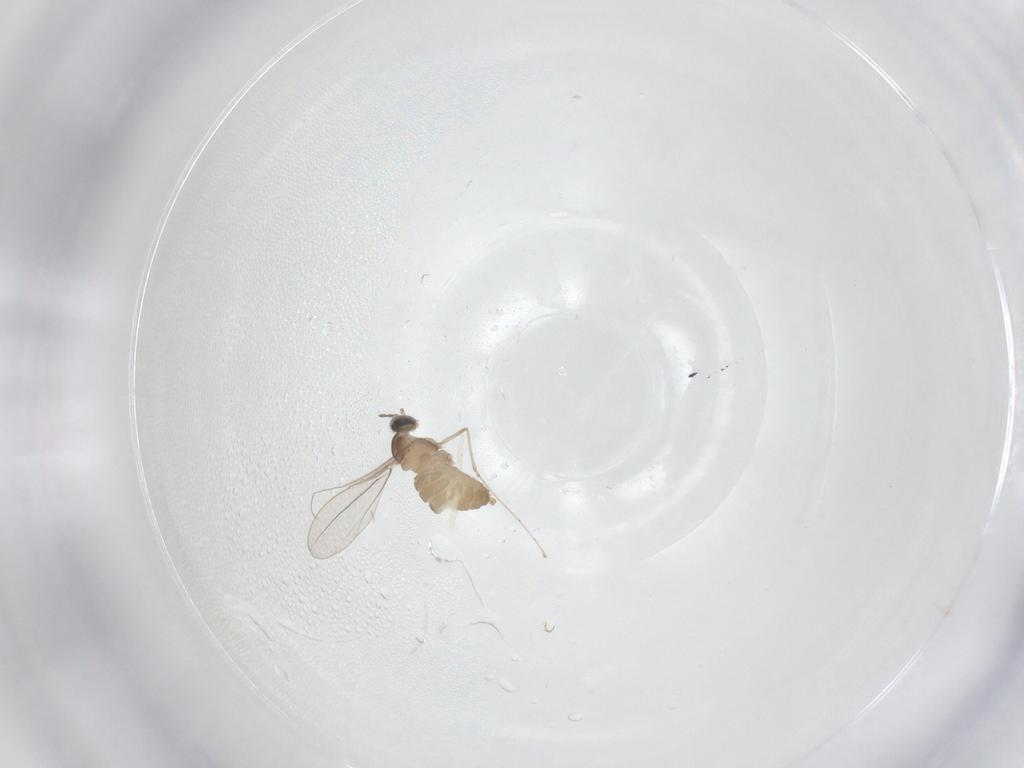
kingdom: Animalia
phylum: Arthropoda
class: Insecta
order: Diptera
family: Cecidomyiidae
